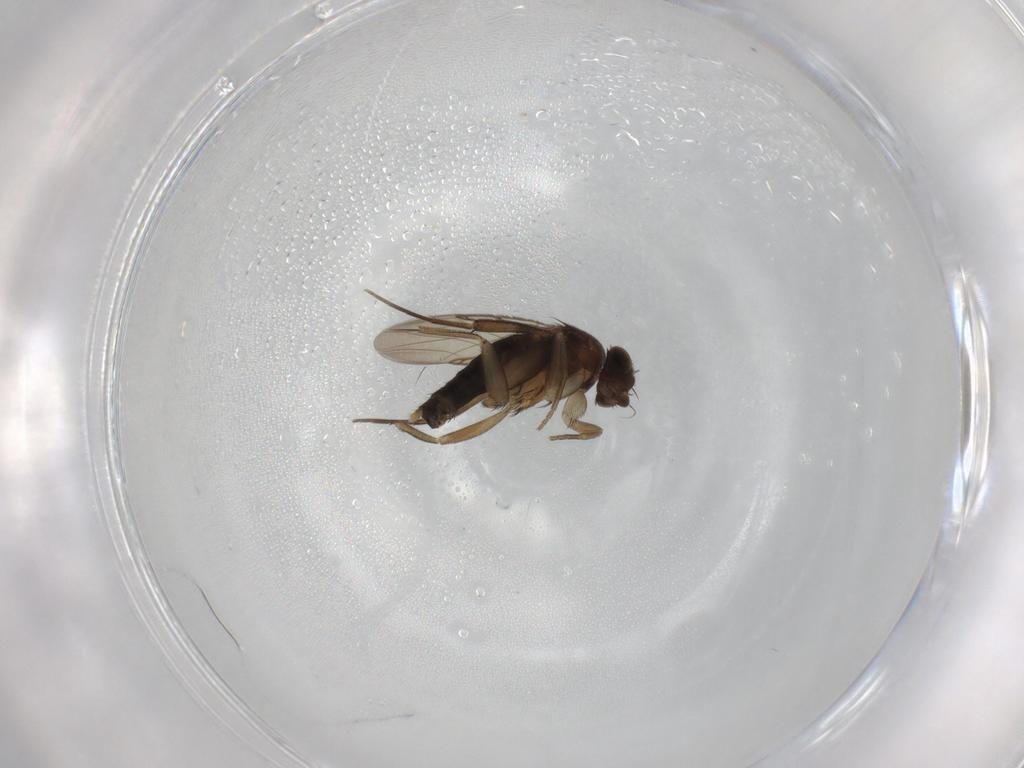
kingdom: Animalia
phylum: Arthropoda
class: Insecta
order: Diptera
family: Phoridae
